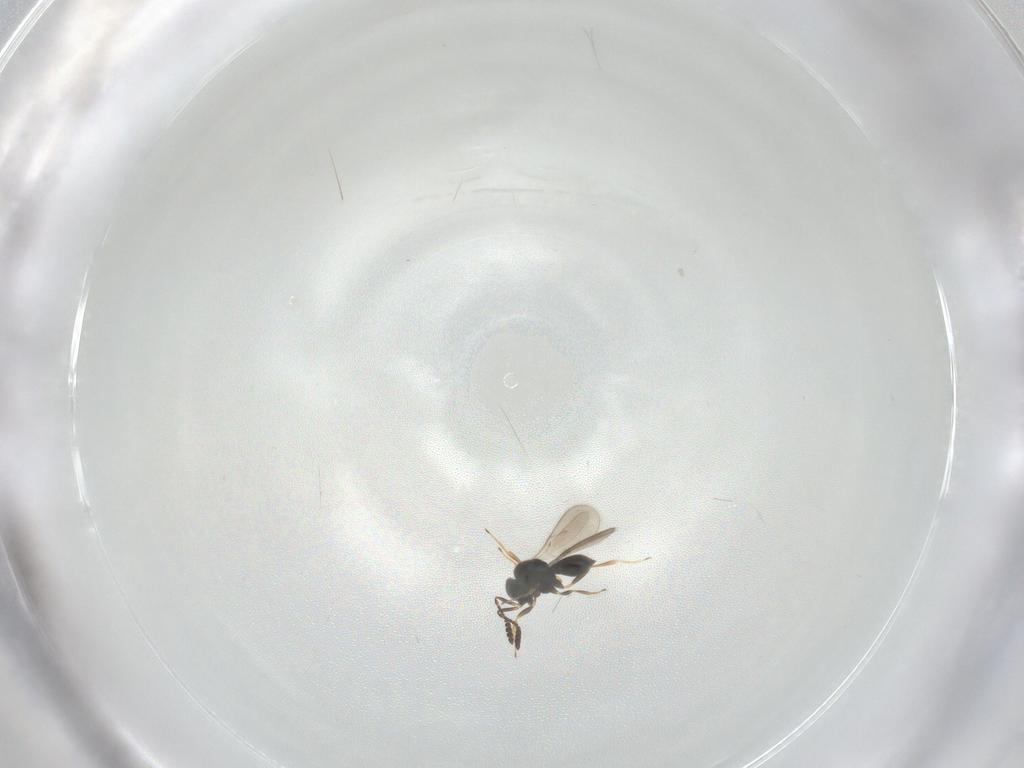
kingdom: Animalia
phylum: Arthropoda
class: Insecta
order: Hymenoptera
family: Scelionidae
